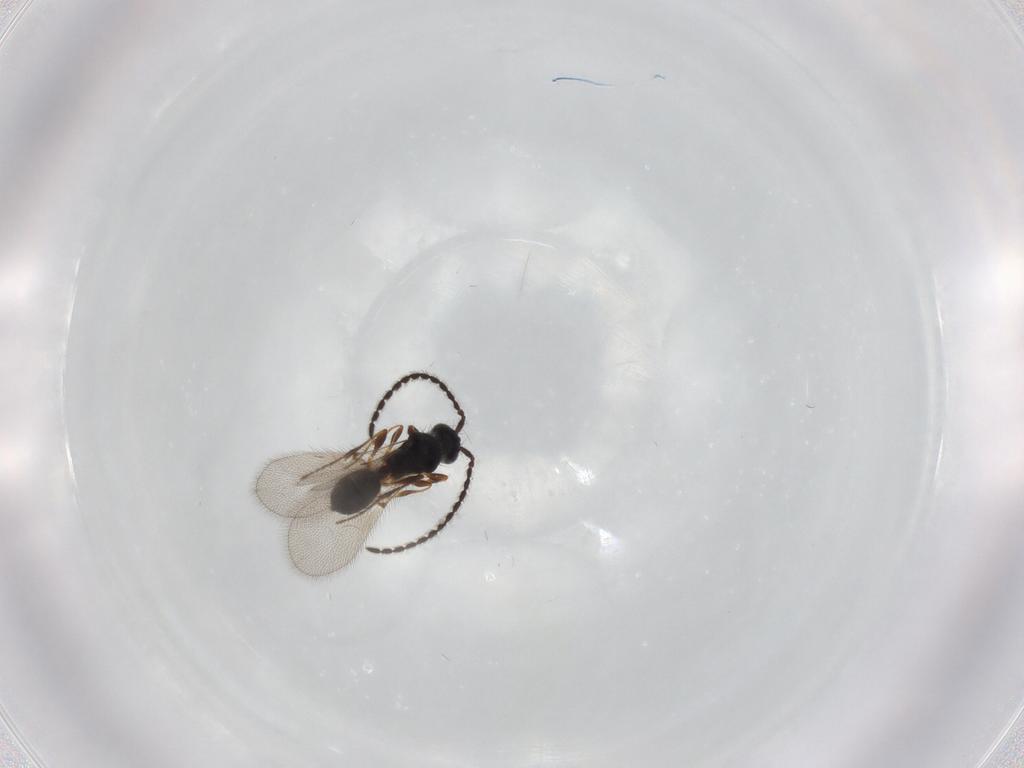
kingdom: Animalia
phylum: Arthropoda
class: Insecta
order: Hymenoptera
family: Diapriidae
